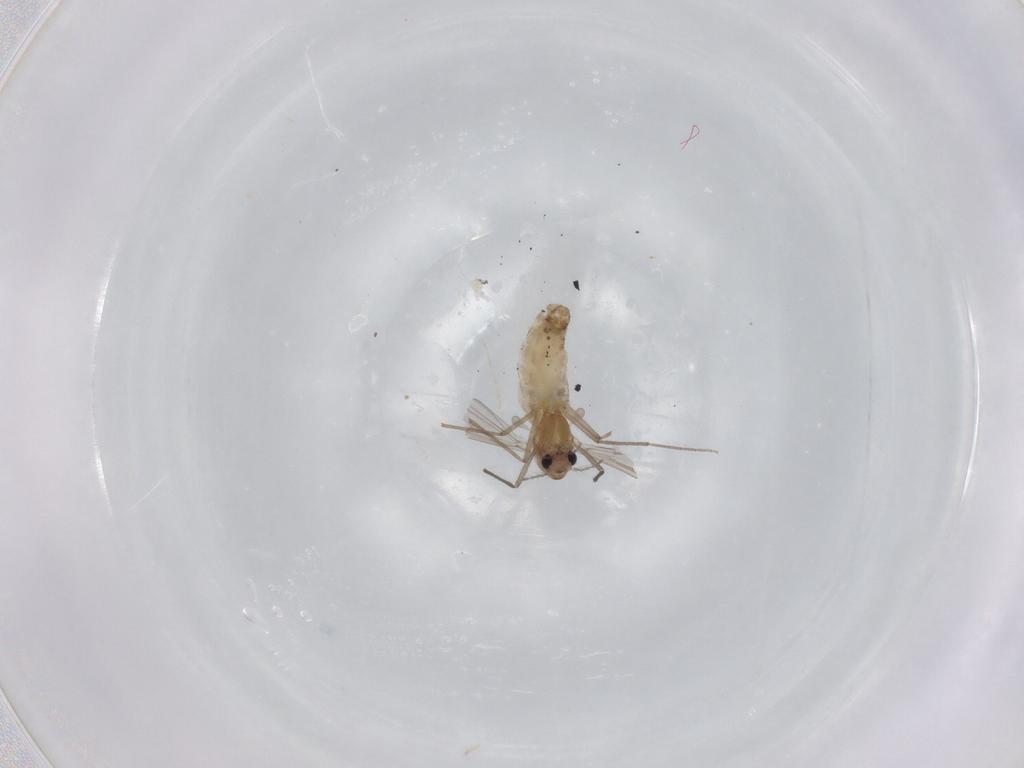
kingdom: Animalia
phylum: Arthropoda
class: Insecta
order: Diptera
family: Chironomidae
